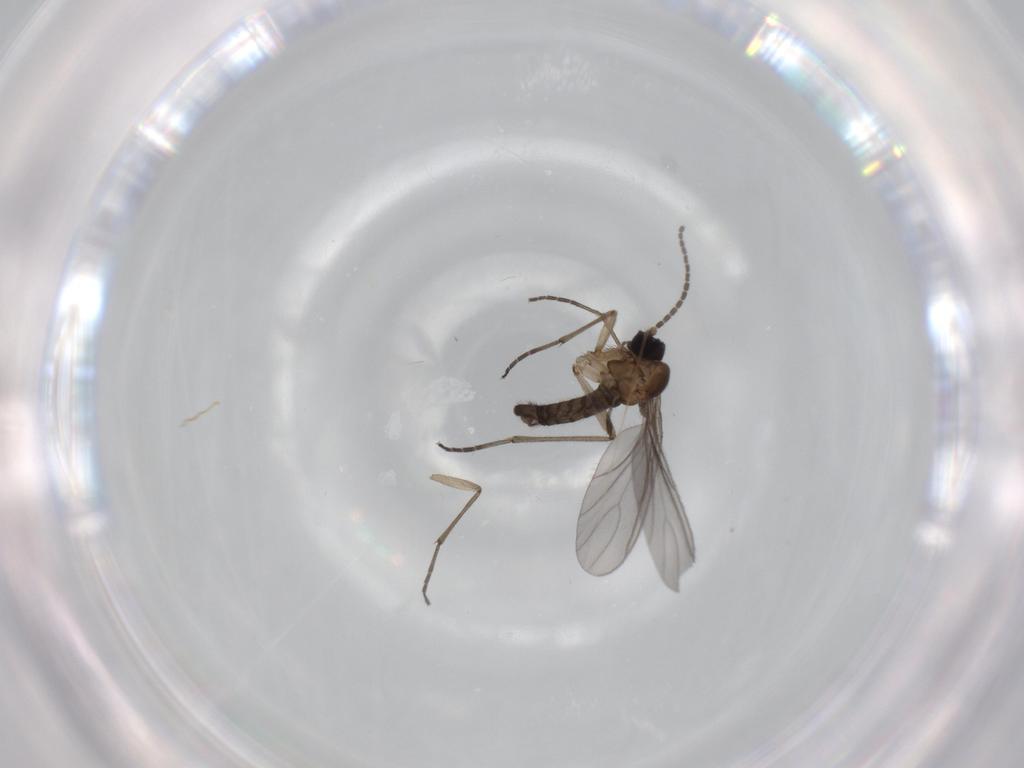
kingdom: Animalia
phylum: Arthropoda
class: Insecta
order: Diptera
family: Sciaridae
